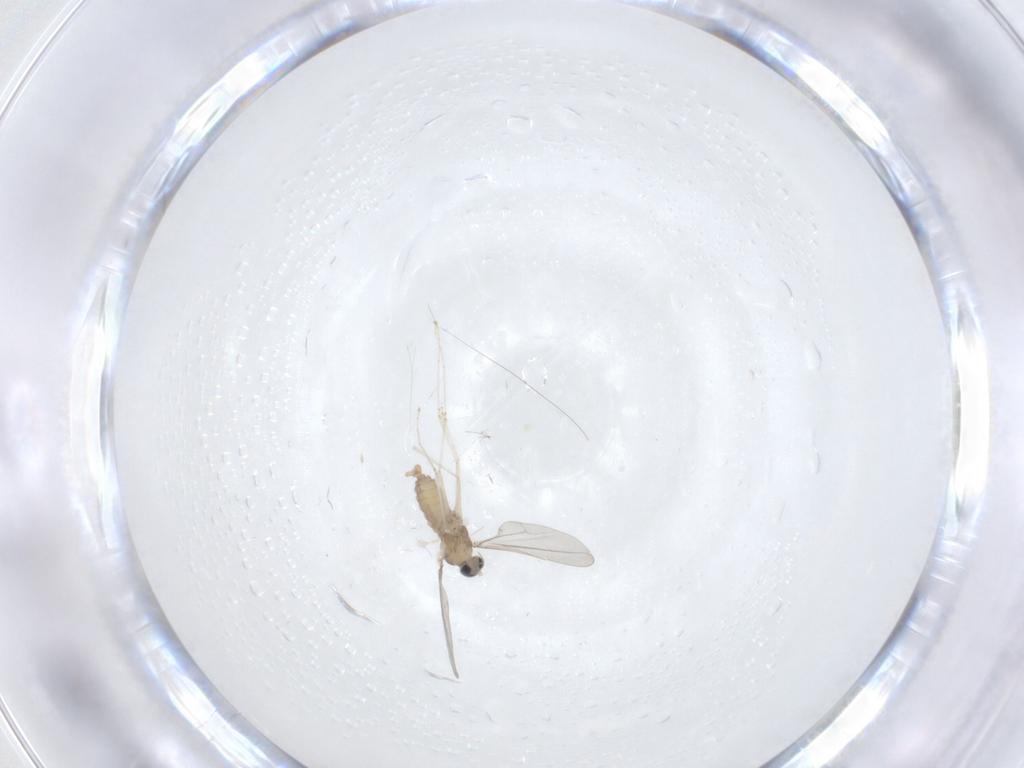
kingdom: Animalia
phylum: Arthropoda
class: Insecta
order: Diptera
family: Cecidomyiidae
